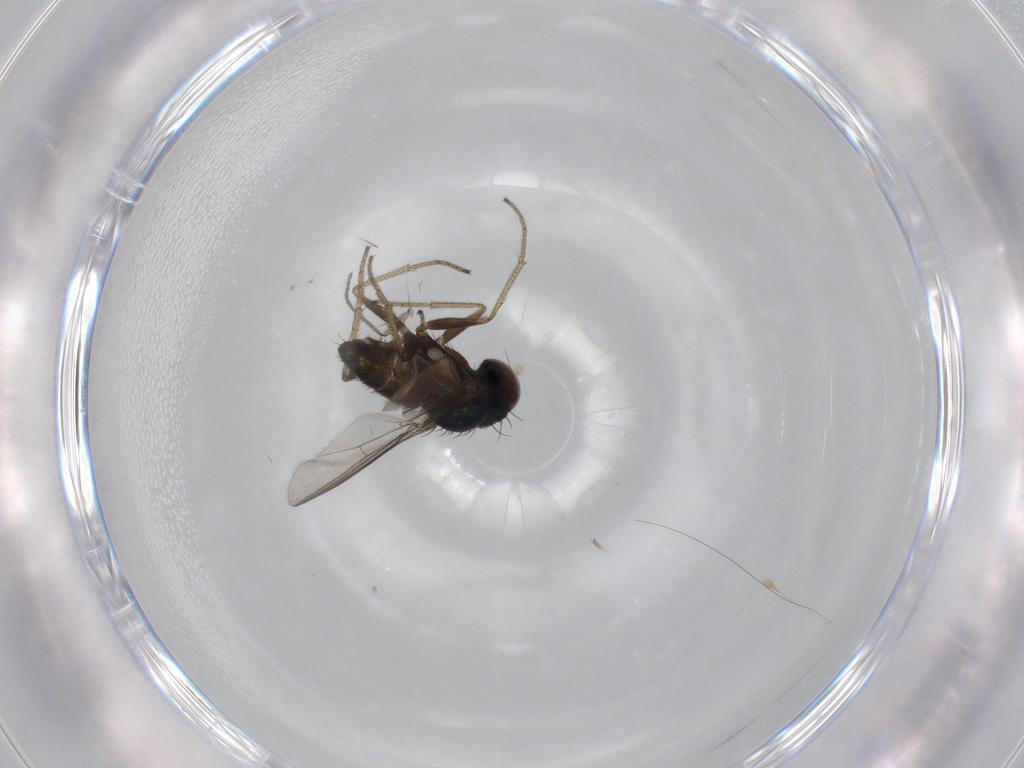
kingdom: Animalia
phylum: Arthropoda
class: Insecta
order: Diptera
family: Dolichopodidae
